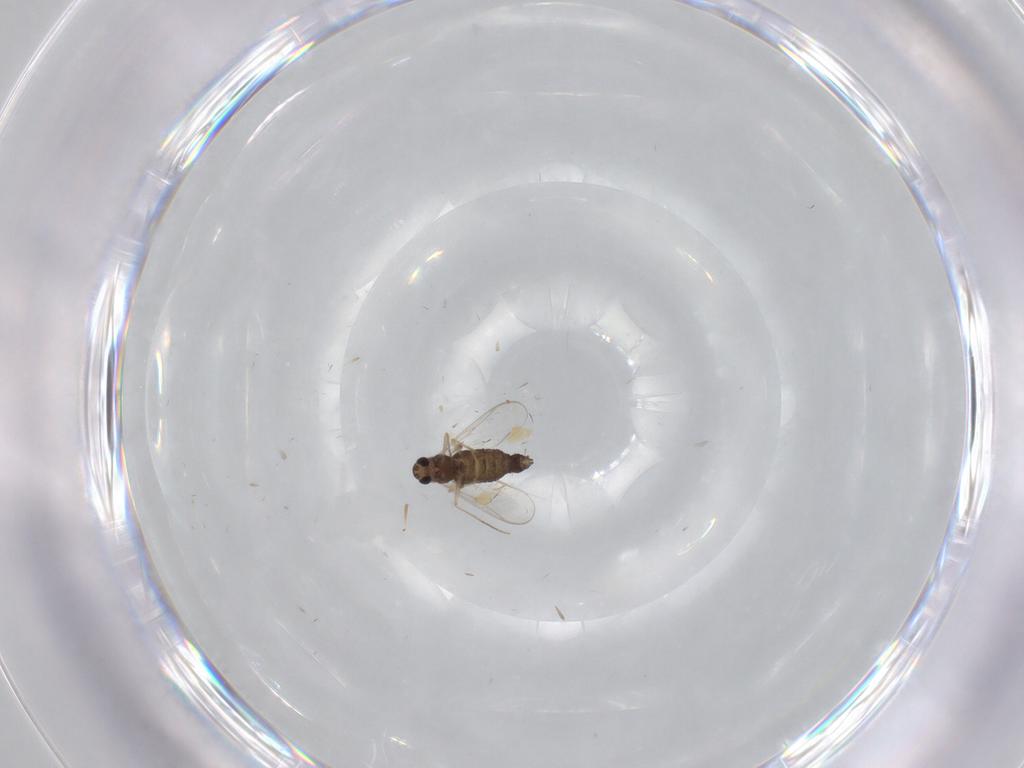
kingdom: Animalia
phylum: Arthropoda
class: Insecta
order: Diptera
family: Chironomidae
